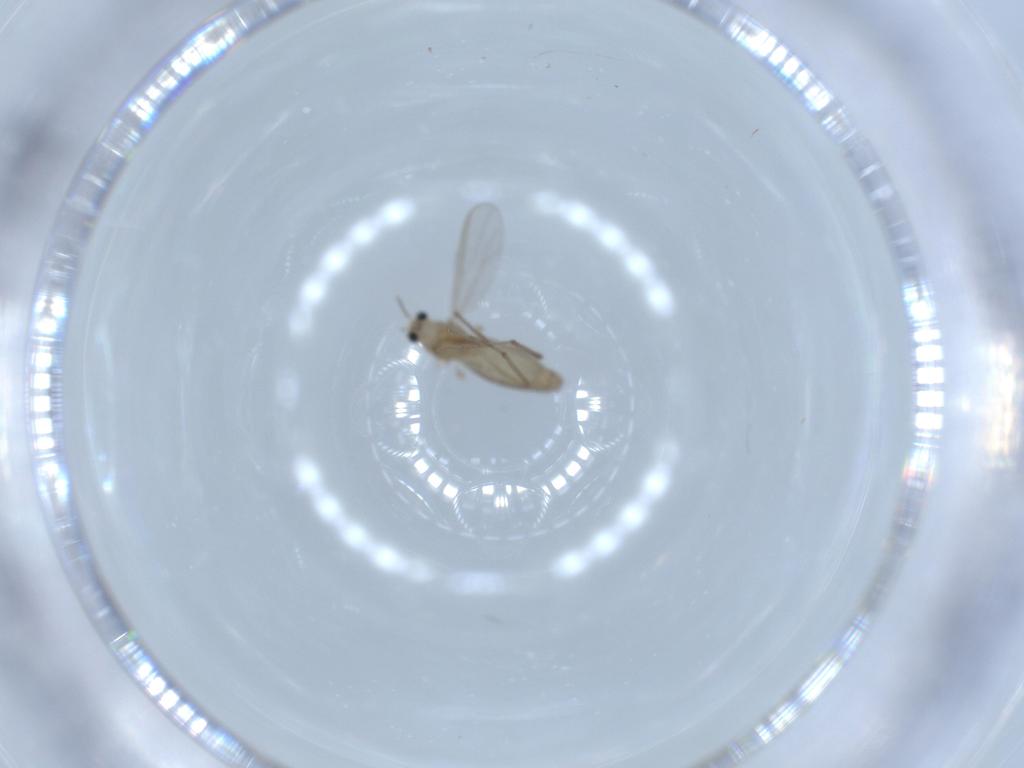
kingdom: Animalia
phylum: Arthropoda
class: Insecta
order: Diptera
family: Chironomidae
